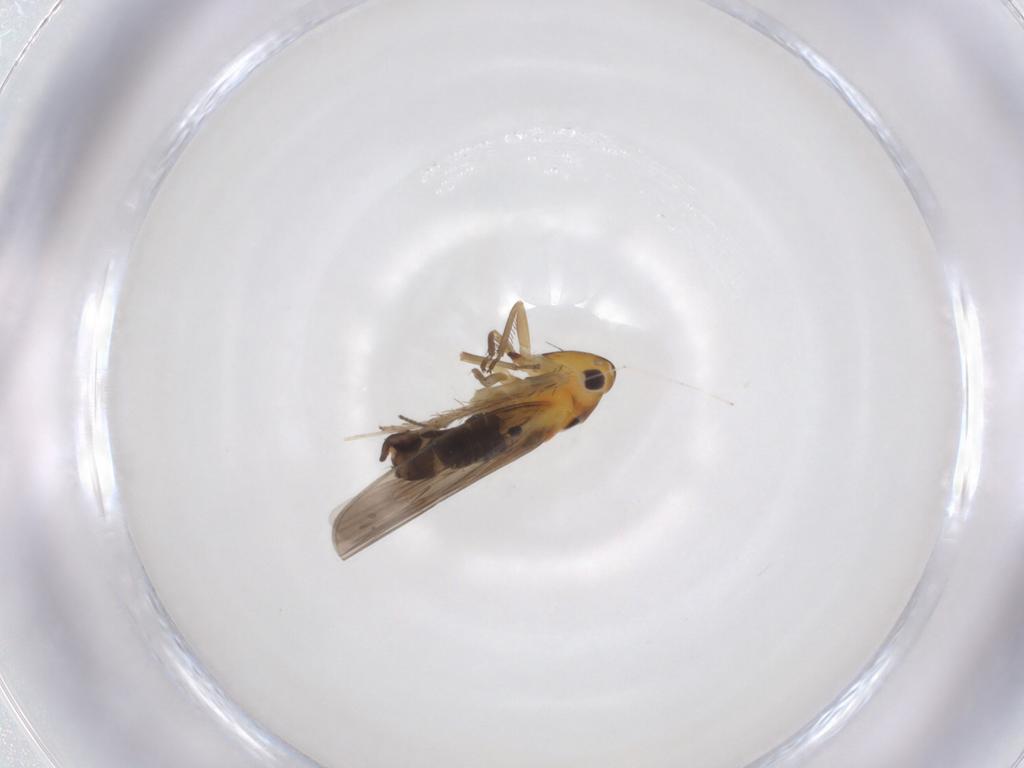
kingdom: Animalia
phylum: Arthropoda
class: Insecta
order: Hemiptera
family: Cicadellidae
